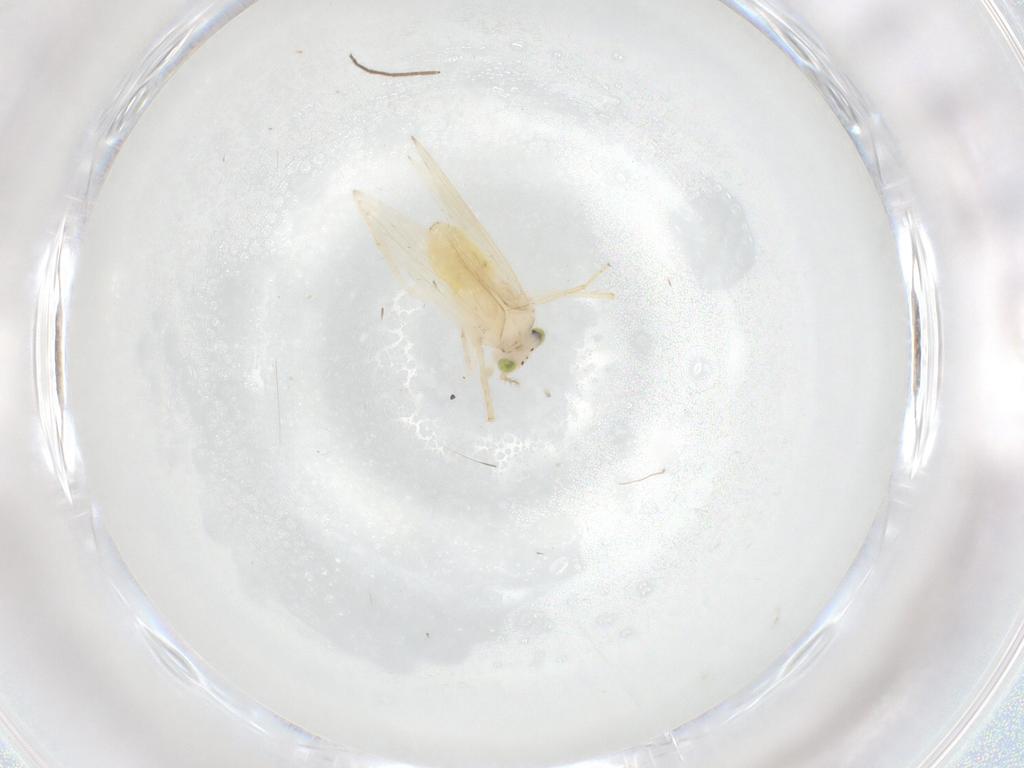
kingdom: Animalia
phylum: Arthropoda
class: Insecta
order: Psocodea
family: Lepidopsocidae
